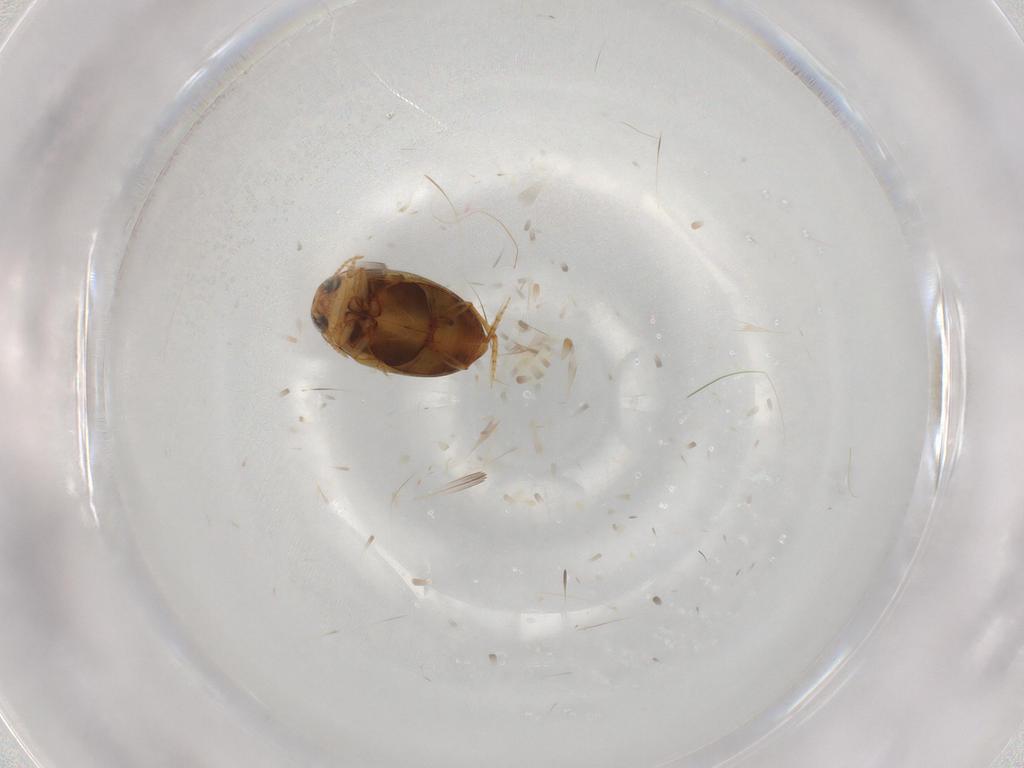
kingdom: Animalia
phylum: Arthropoda
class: Insecta
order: Coleoptera
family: Dytiscidae
